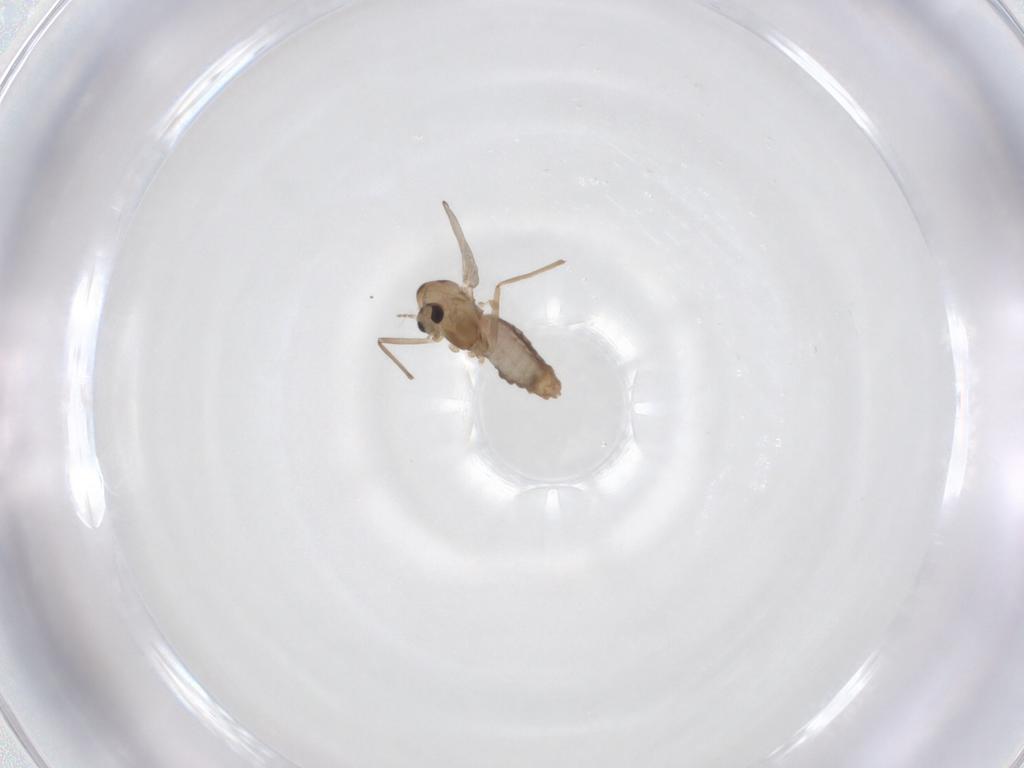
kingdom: Animalia
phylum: Arthropoda
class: Insecta
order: Diptera
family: Chironomidae
